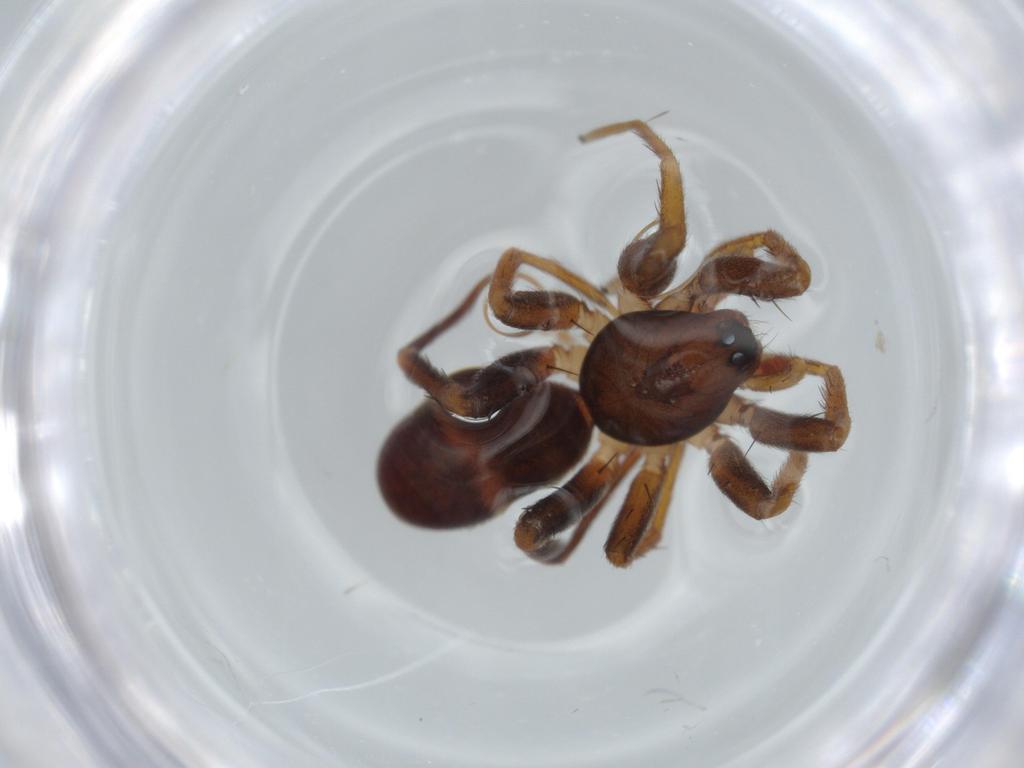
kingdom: Animalia
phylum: Arthropoda
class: Arachnida
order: Araneae
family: Corinnidae
